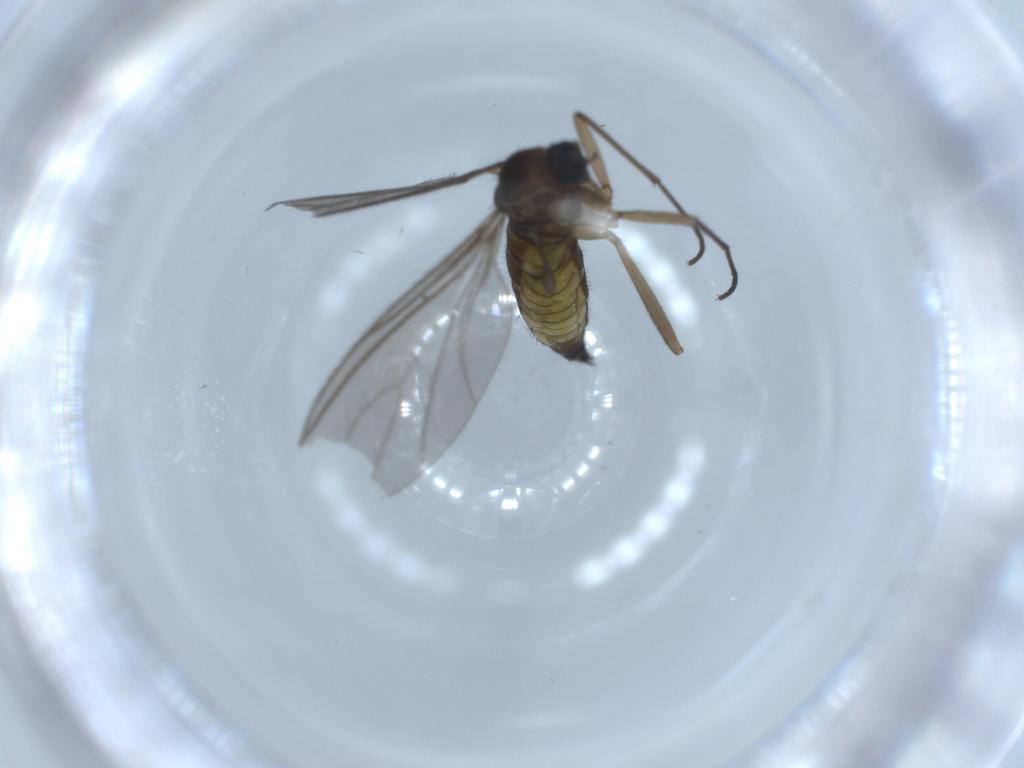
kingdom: Animalia
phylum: Arthropoda
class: Insecta
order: Diptera
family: Sciaridae
